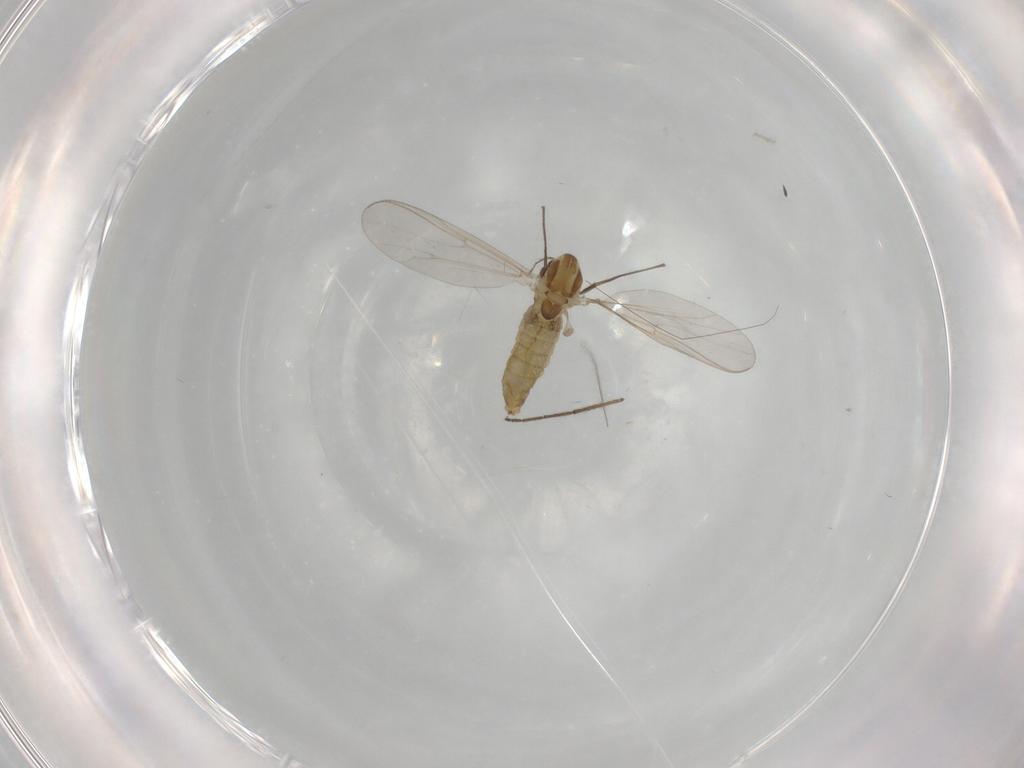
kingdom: Animalia
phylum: Arthropoda
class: Insecta
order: Diptera
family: Chironomidae
